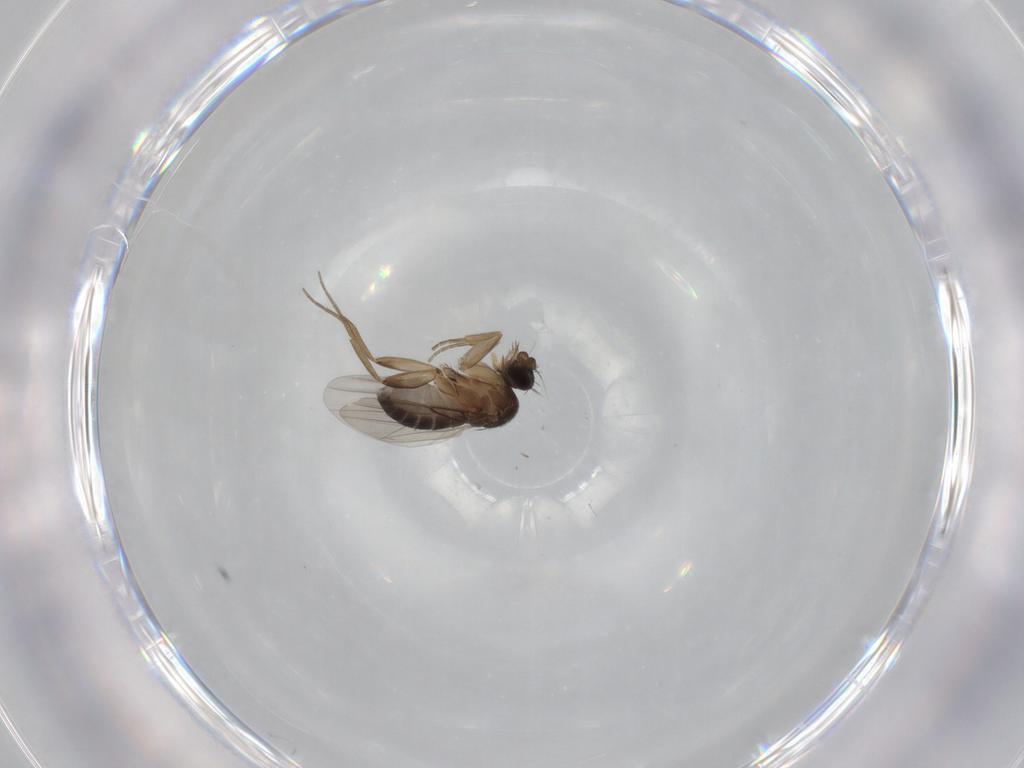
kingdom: Animalia
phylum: Arthropoda
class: Insecta
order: Diptera
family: Phoridae
